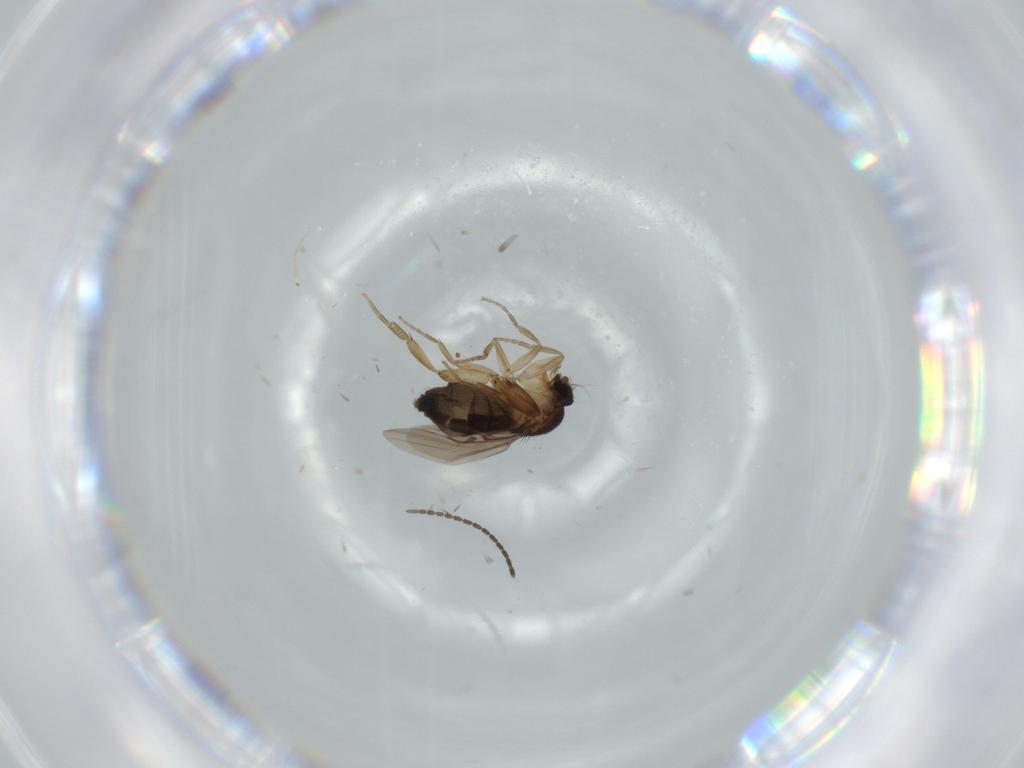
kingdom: Animalia
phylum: Arthropoda
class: Insecta
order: Diptera
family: Phoridae
